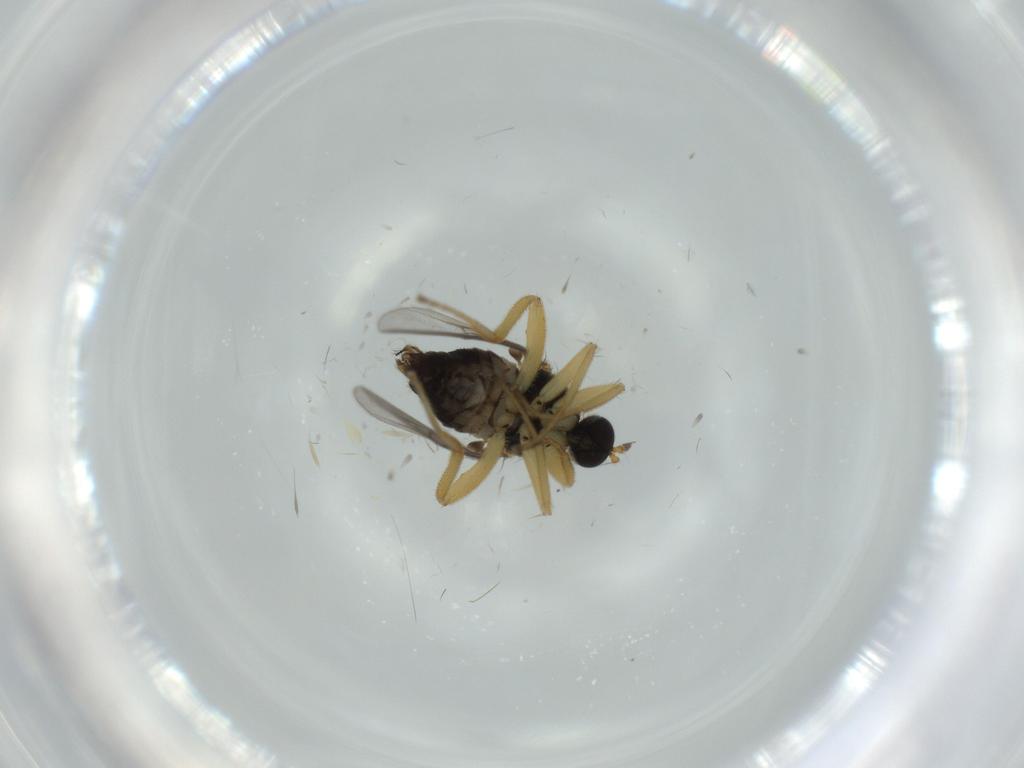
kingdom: Animalia
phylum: Arthropoda
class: Insecta
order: Diptera
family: Hybotidae
